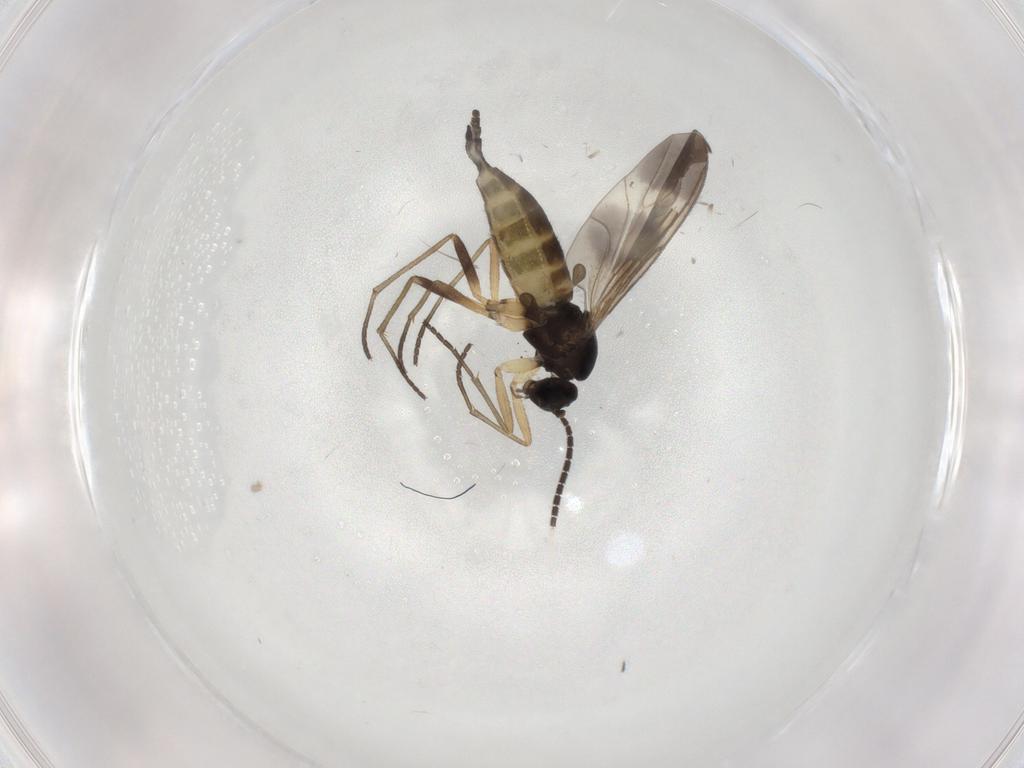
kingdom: Animalia
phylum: Arthropoda
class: Insecta
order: Diptera
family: Sciaridae
